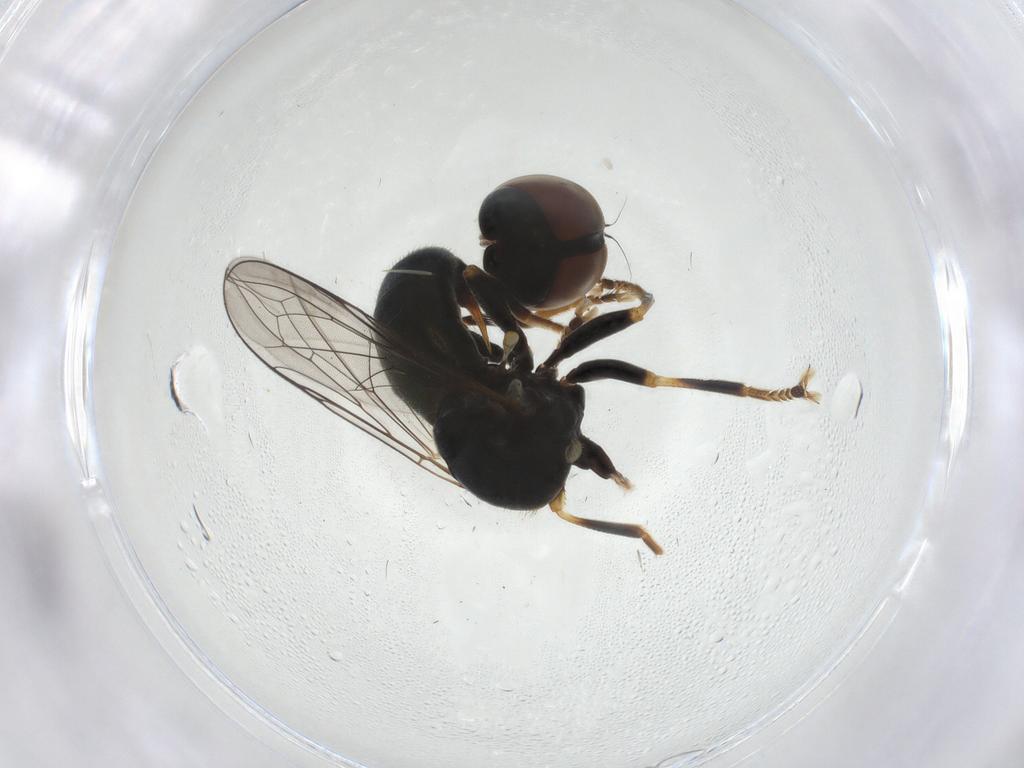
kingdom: Animalia
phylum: Arthropoda
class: Insecta
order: Diptera
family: Pipunculidae
